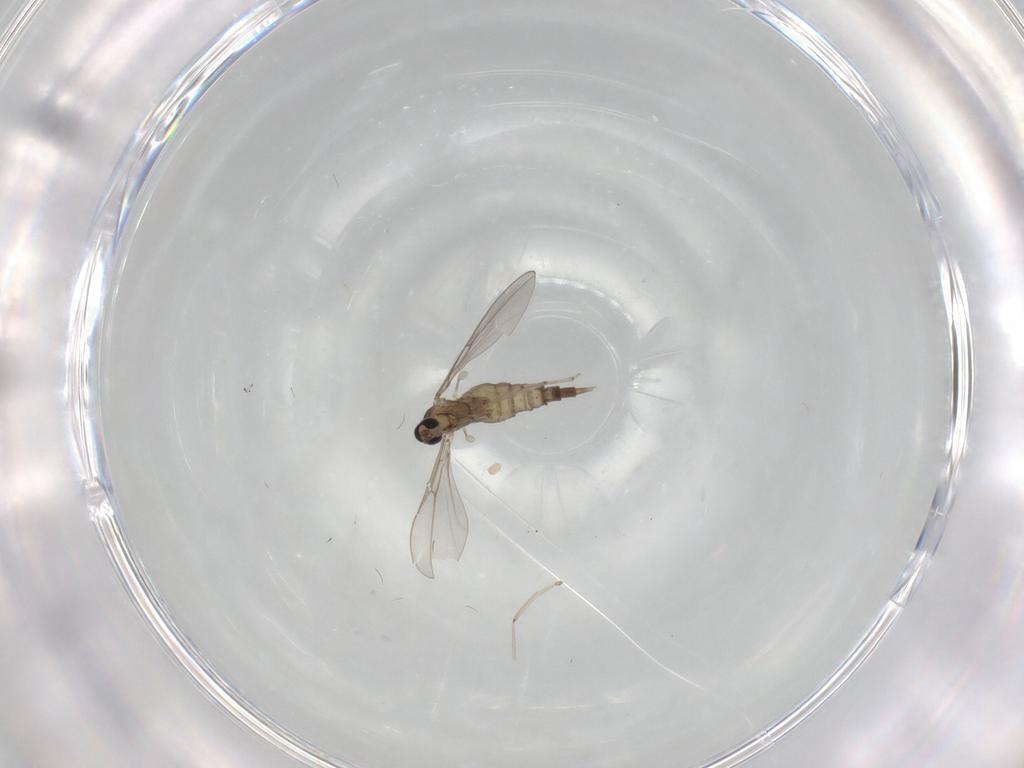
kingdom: Animalia
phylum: Arthropoda
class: Insecta
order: Diptera
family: Cecidomyiidae
